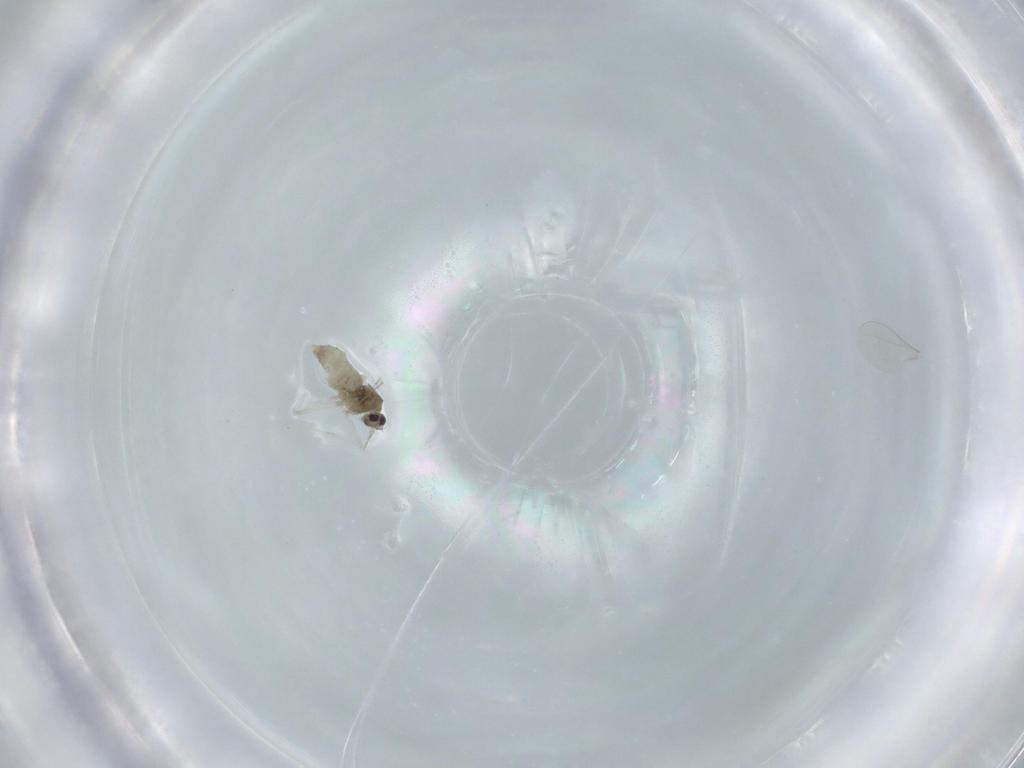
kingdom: Animalia
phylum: Arthropoda
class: Insecta
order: Diptera
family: Cecidomyiidae
